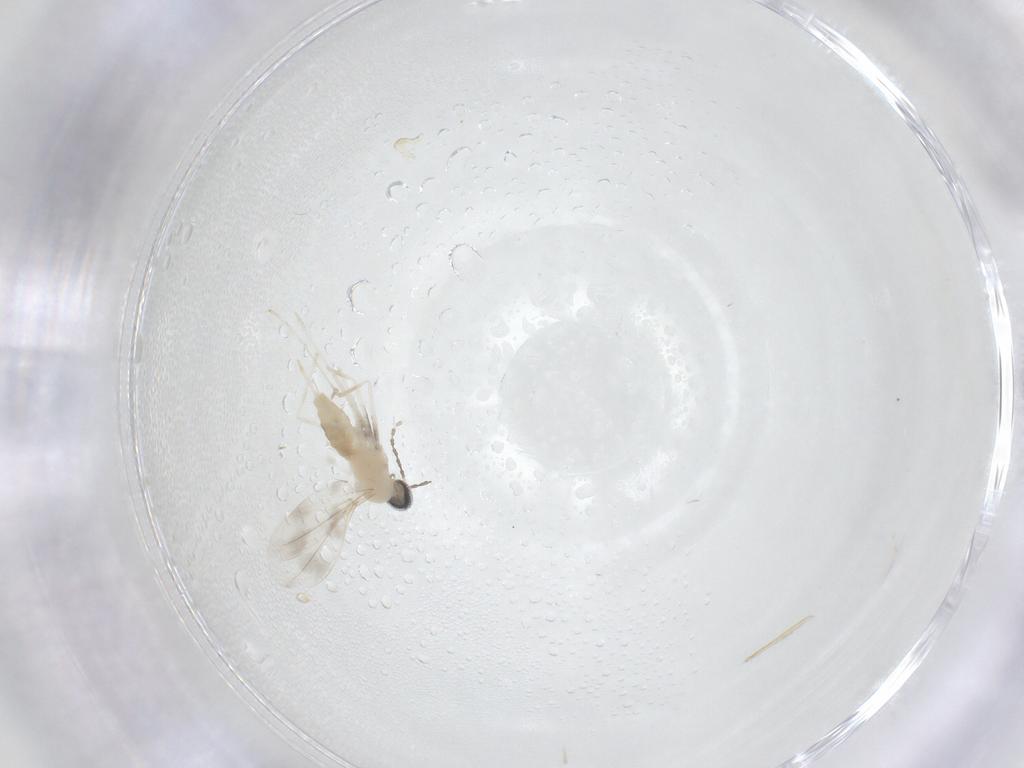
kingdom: Animalia
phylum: Arthropoda
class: Insecta
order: Diptera
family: Cecidomyiidae
